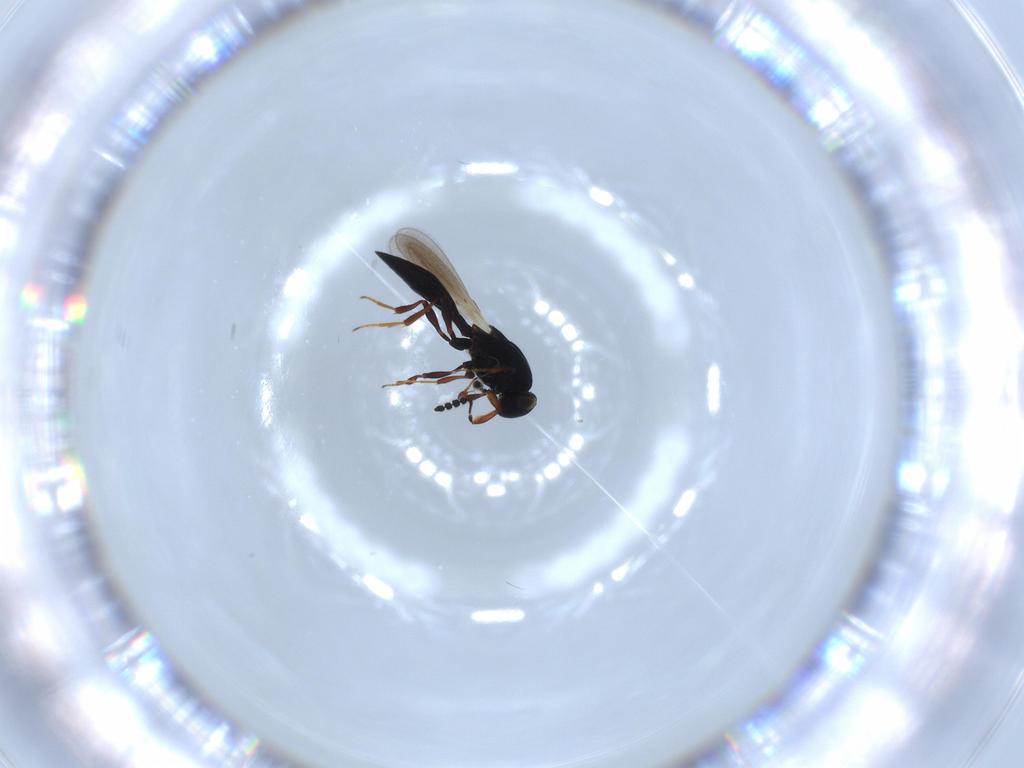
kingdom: Animalia
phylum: Arthropoda
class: Insecta
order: Hymenoptera
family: Platygastridae
